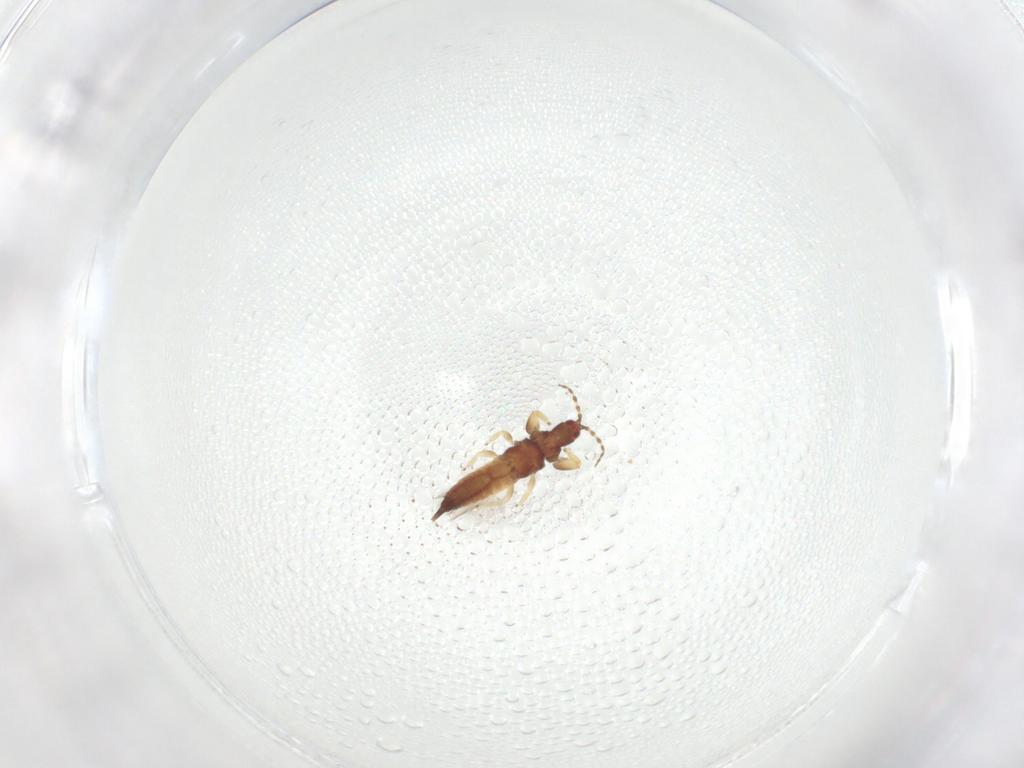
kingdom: Animalia
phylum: Arthropoda
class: Insecta
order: Thysanoptera
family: Phlaeothripidae
